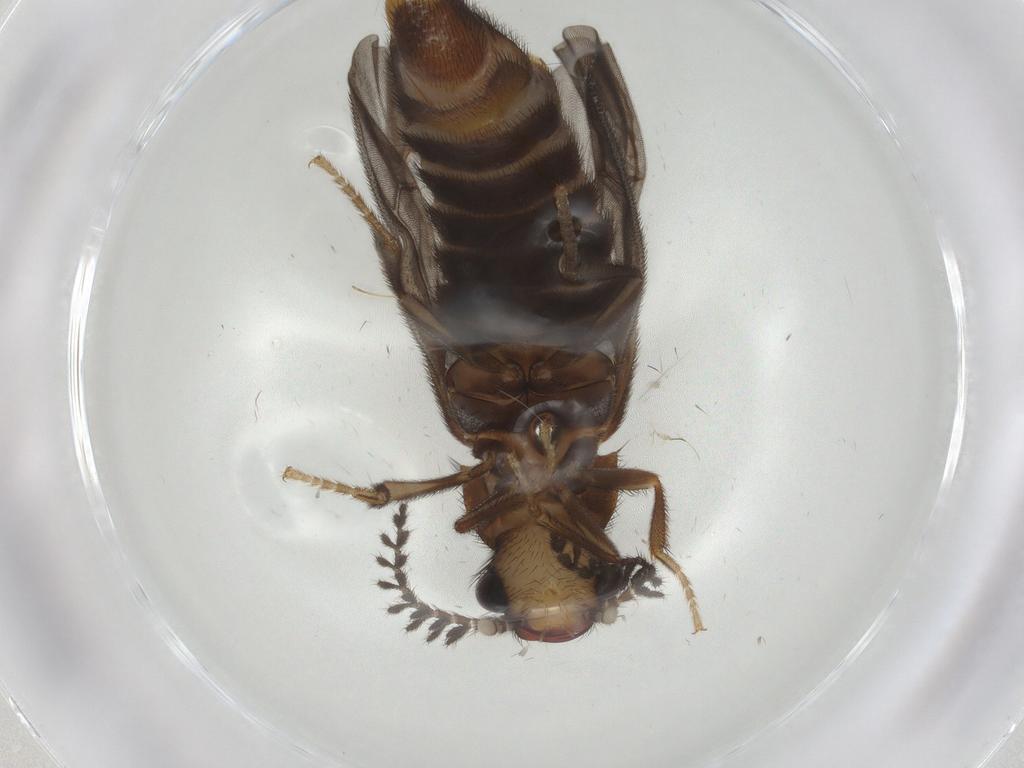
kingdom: Animalia
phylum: Arthropoda
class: Insecta
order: Coleoptera
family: Phengodidae
